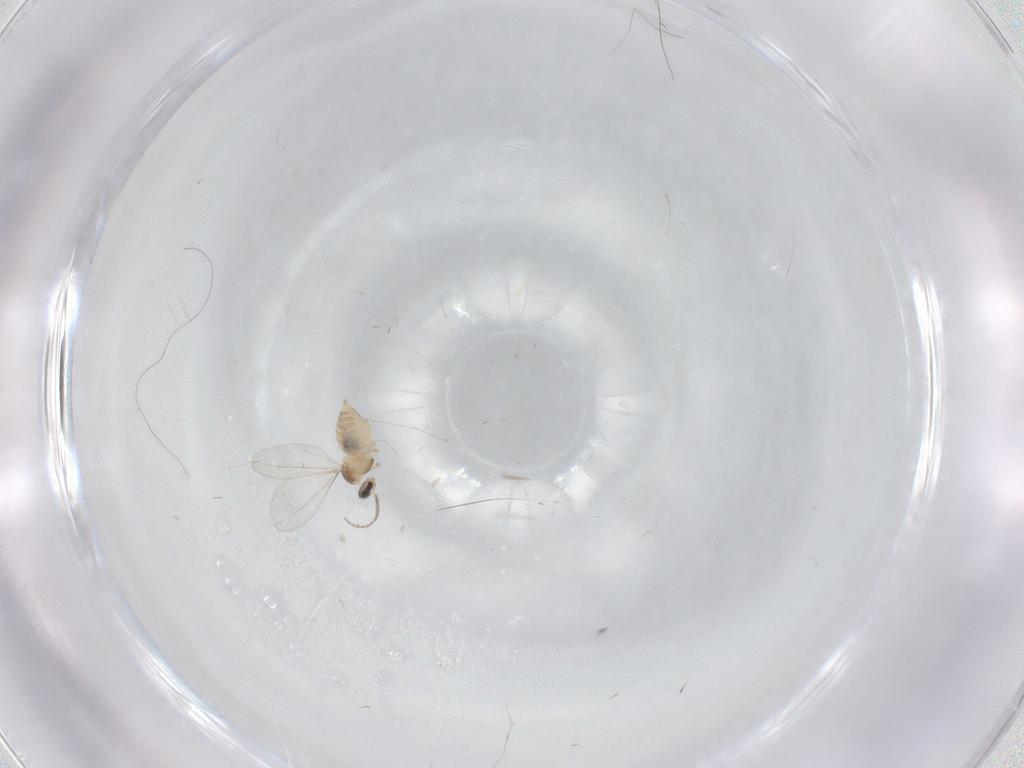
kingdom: Animalia
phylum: Arthropoda
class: Insecta
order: Diptera
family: Cecidomyiidae
